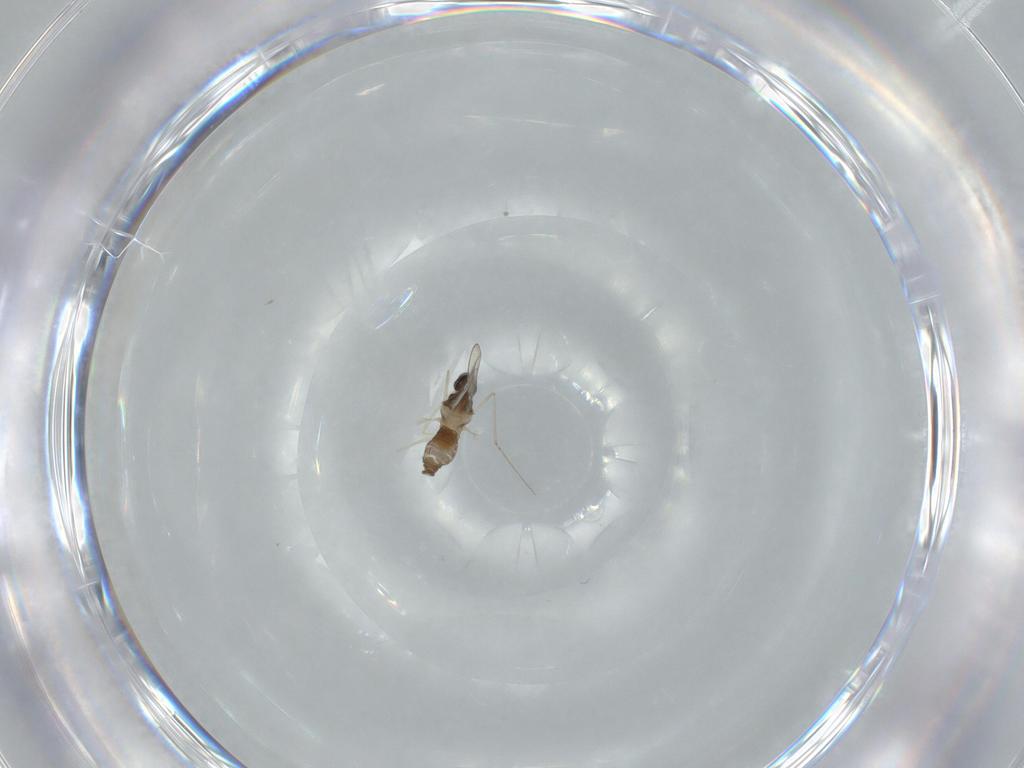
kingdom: Animalia
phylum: Arthropoda
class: Insecta
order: Diptera
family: Cecidomyiidae
